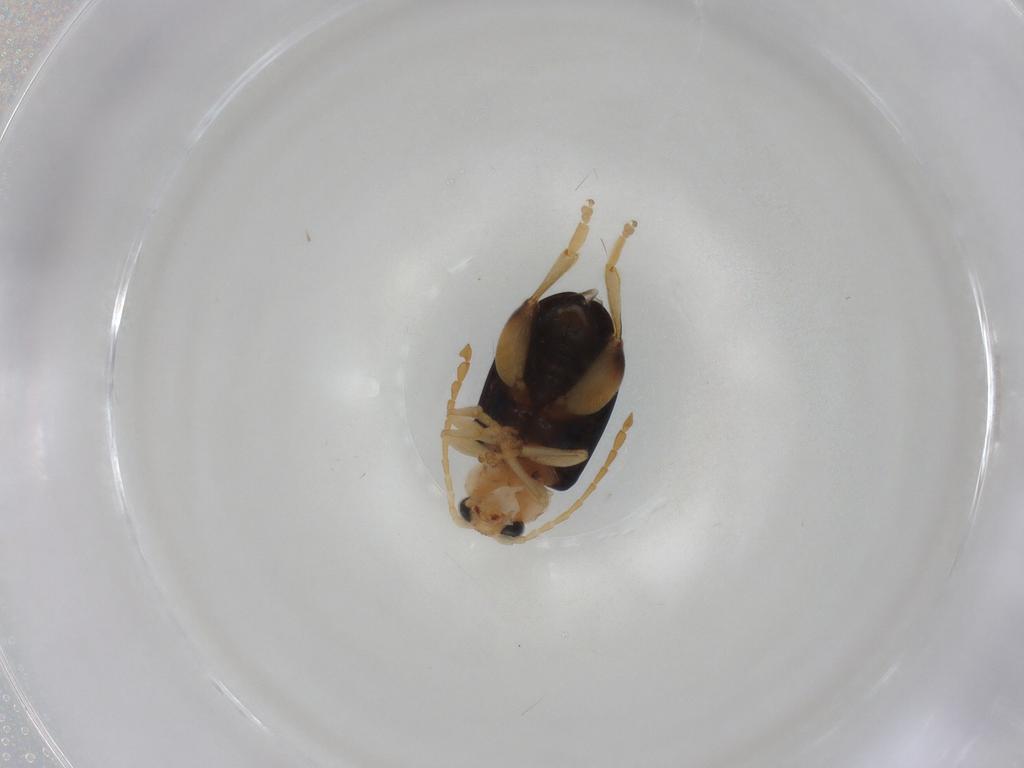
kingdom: Animalia
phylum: Arthropoda
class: Insecta
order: Coleoptera
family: Chrysomelidae
